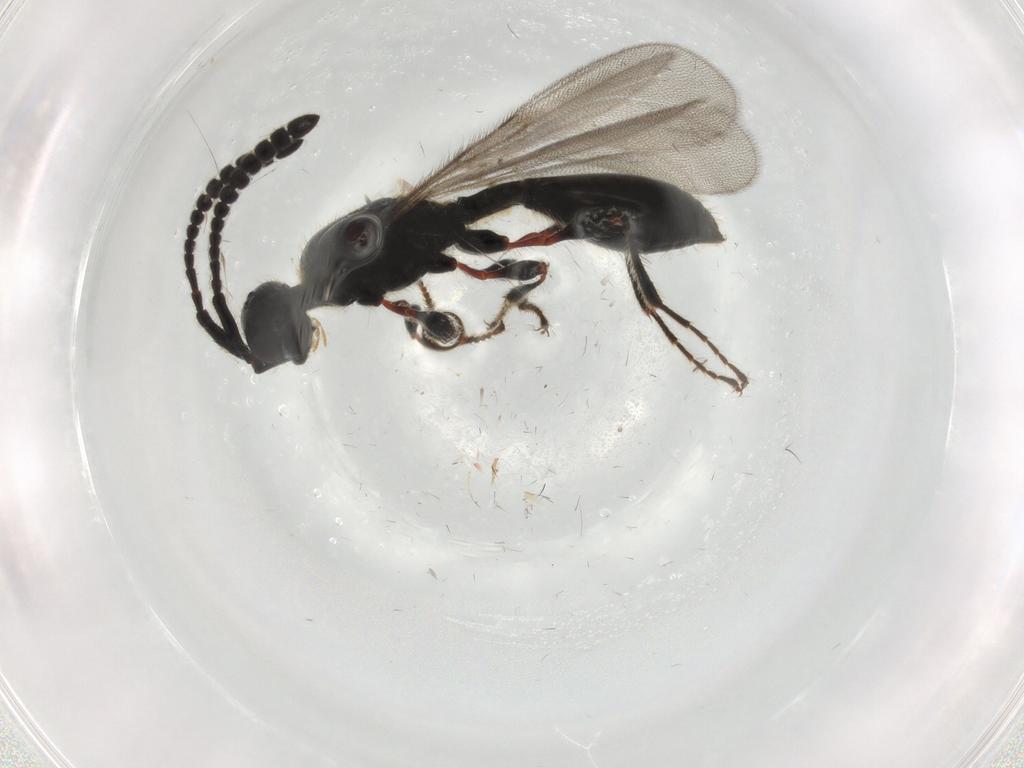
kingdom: Animalia
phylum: Arthropoda
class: Insecta
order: Hymenoptera
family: Diapriidae
